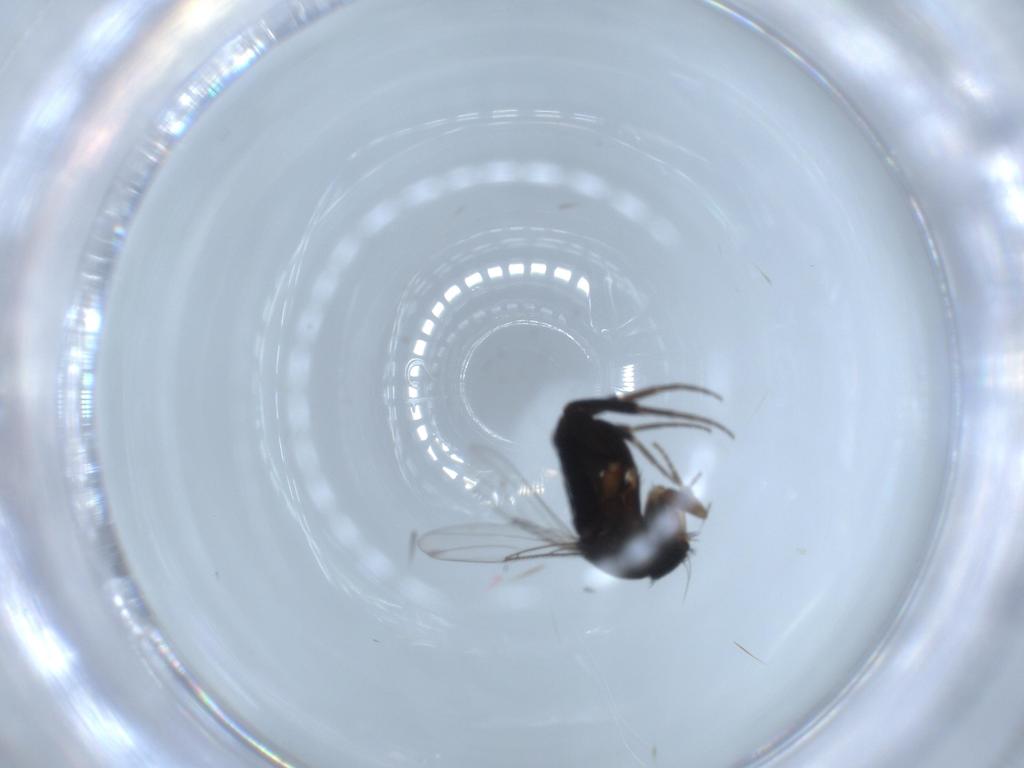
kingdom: Animalia
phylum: Arthropoda
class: Insecta
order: Diptera
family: Phoridae
